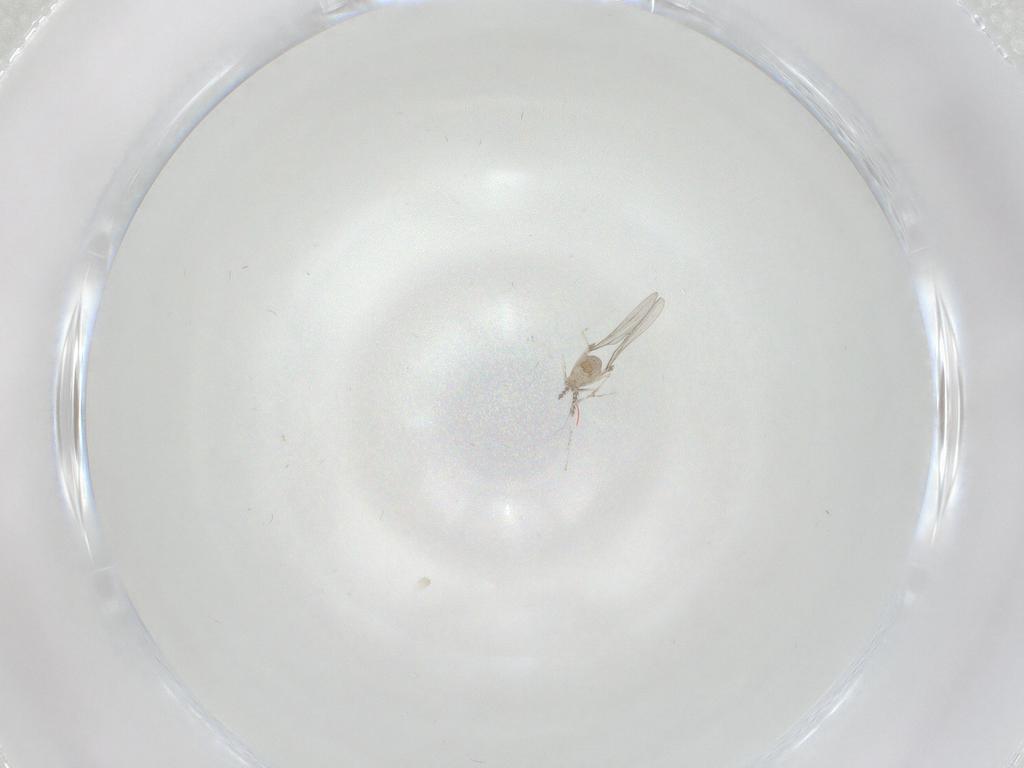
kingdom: Animalia
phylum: Arthropoda
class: Insecta
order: Diptera
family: Cecidomyiidae
